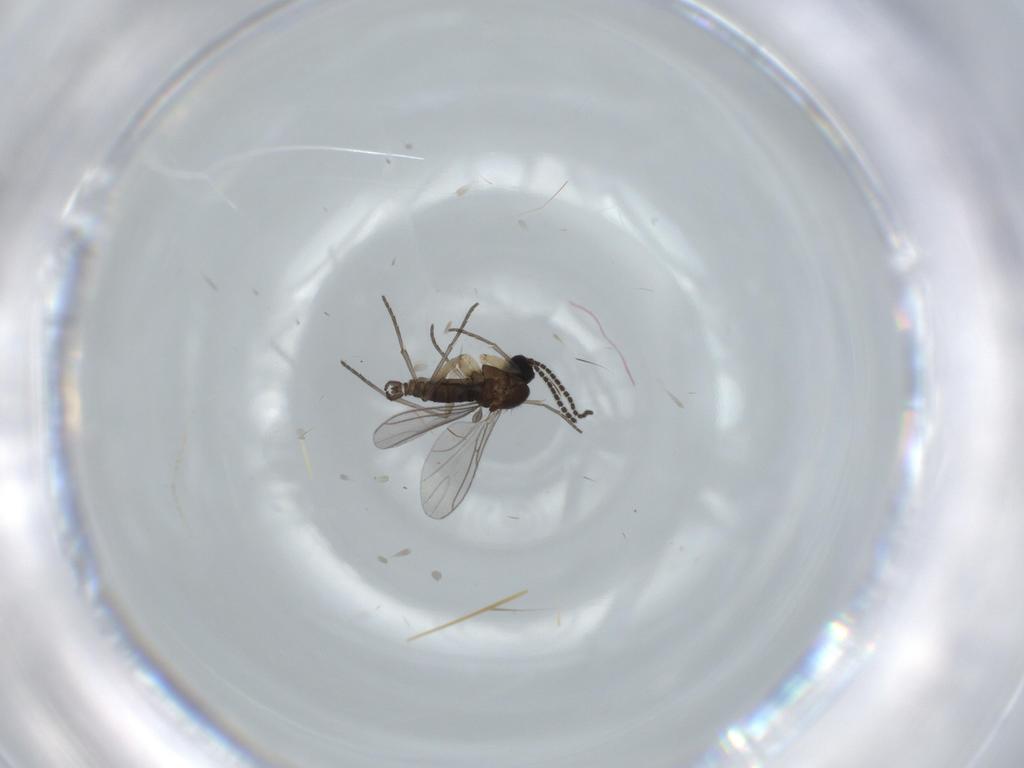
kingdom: Animalia
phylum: Arthropoda
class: Insecta
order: Diptera
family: Sciaridae
